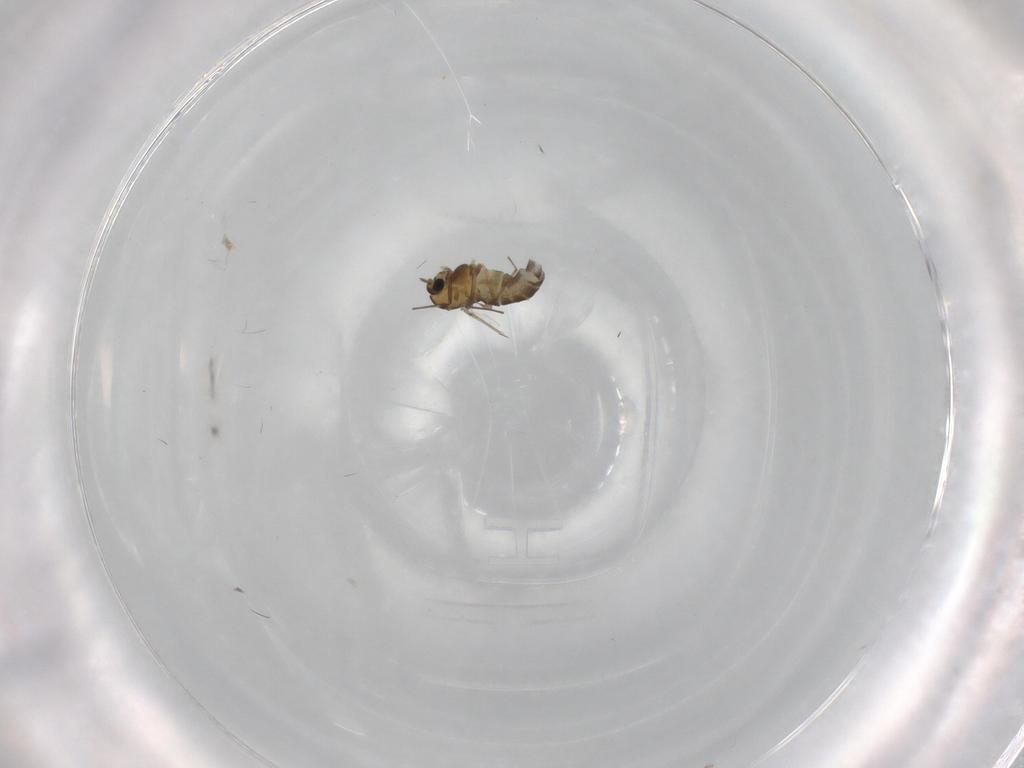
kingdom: Animalia
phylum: Arthropoda
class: Insecta
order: Diptera
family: Chironomidae
